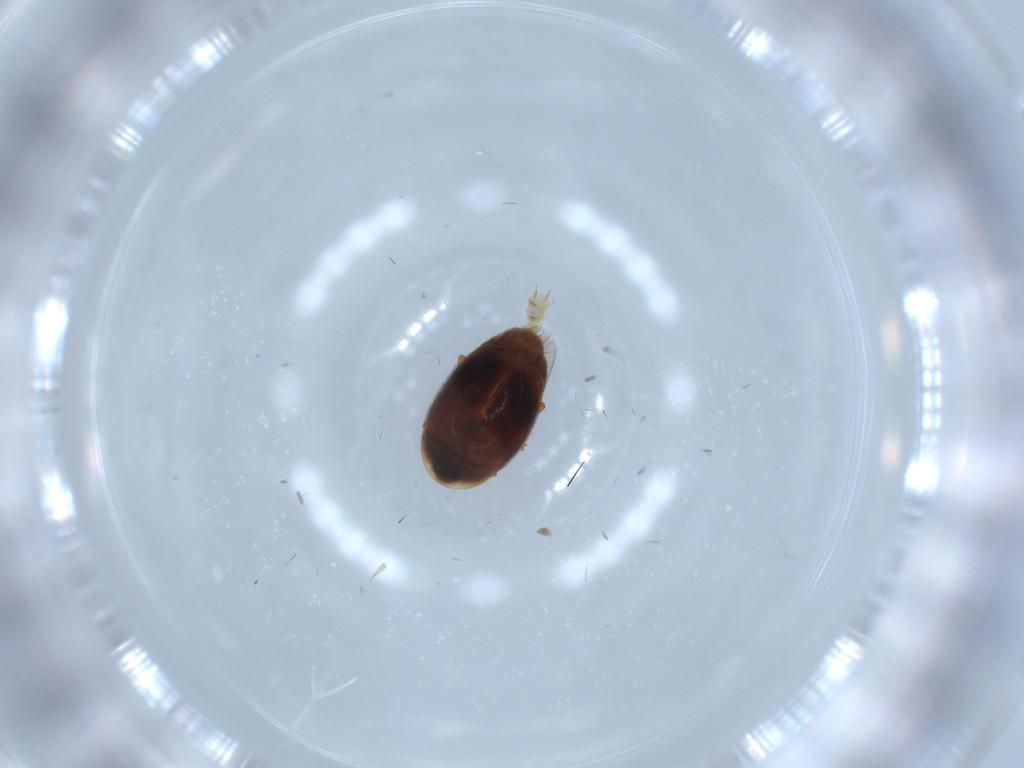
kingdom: Animalia
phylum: Arthropoda
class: Insecta
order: Coleoptera
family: Corylophidae
